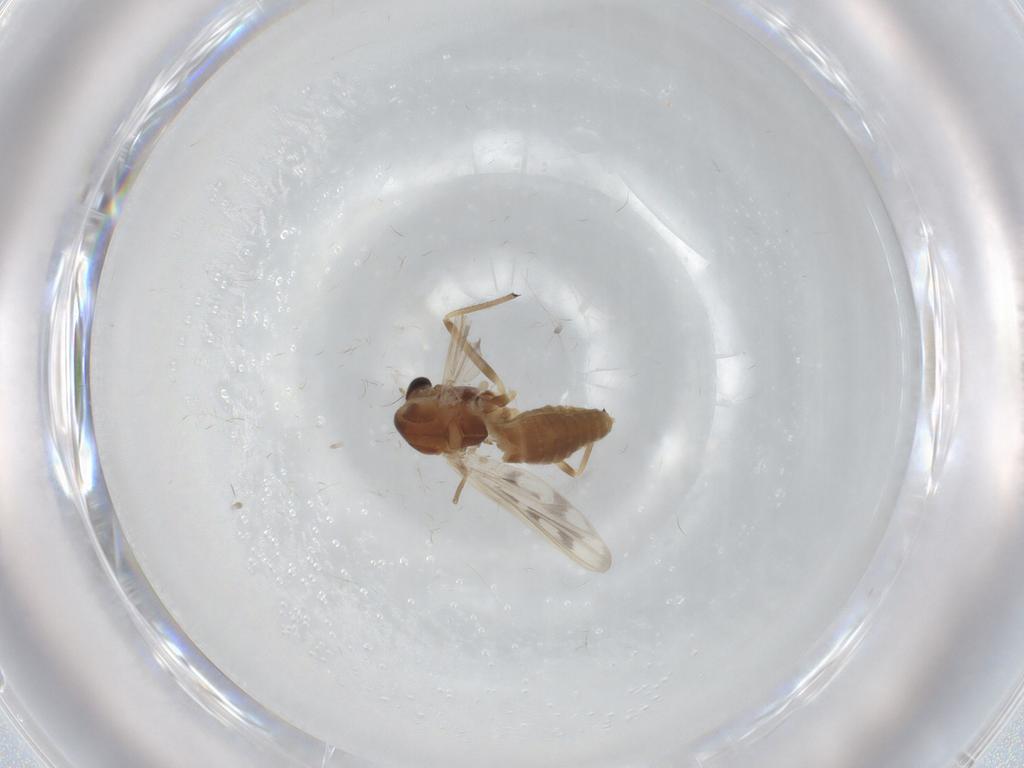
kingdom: Animalia
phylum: Arthropoda
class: Insecta
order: Diptera
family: Chironomidae
